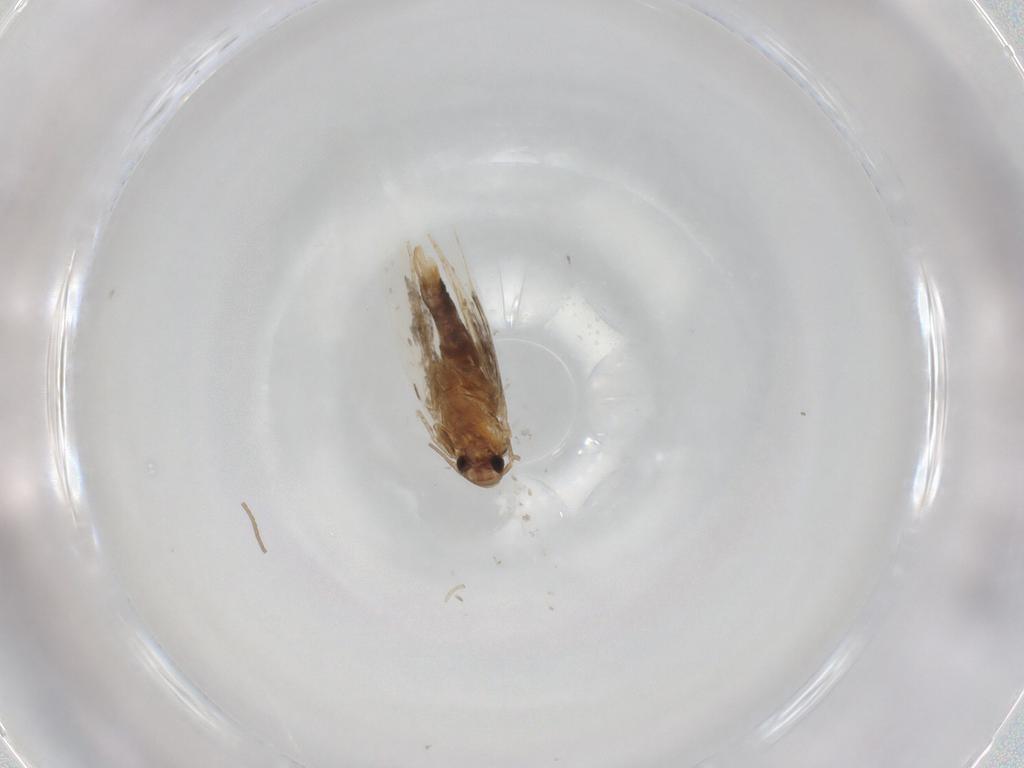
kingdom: Animalia
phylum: Arthropoda
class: Insecta
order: Lepidoptera
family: Elachistidae
